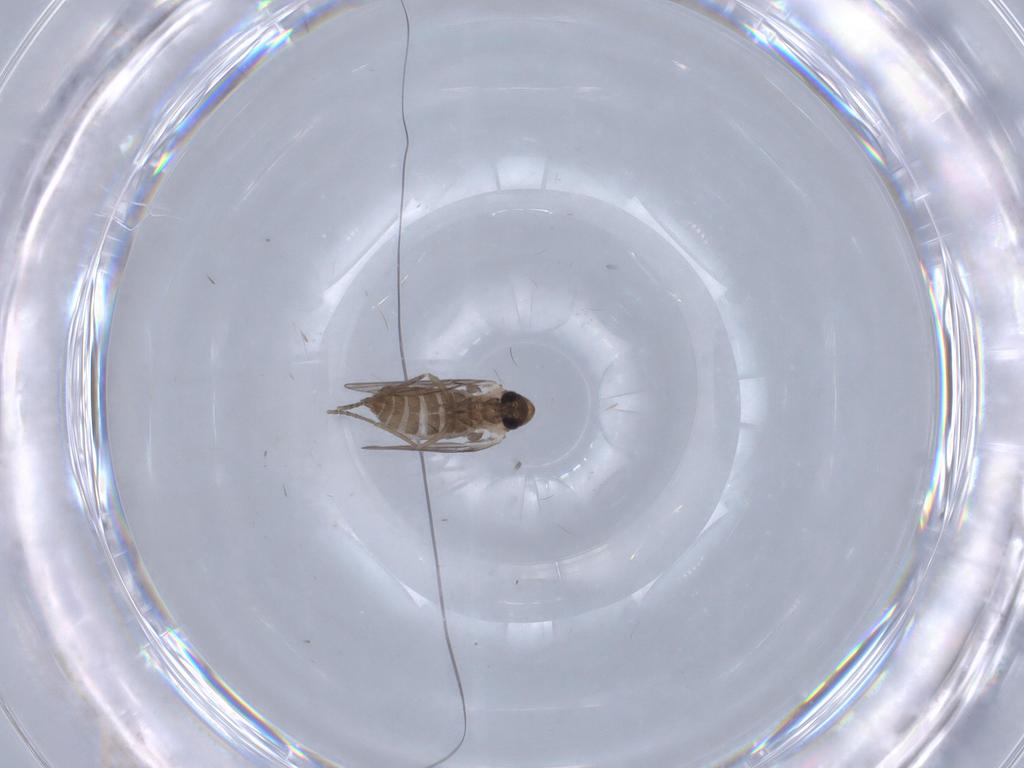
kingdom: Animalia
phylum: Arthropoda
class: Insecta
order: Diptera
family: Psychodidae
